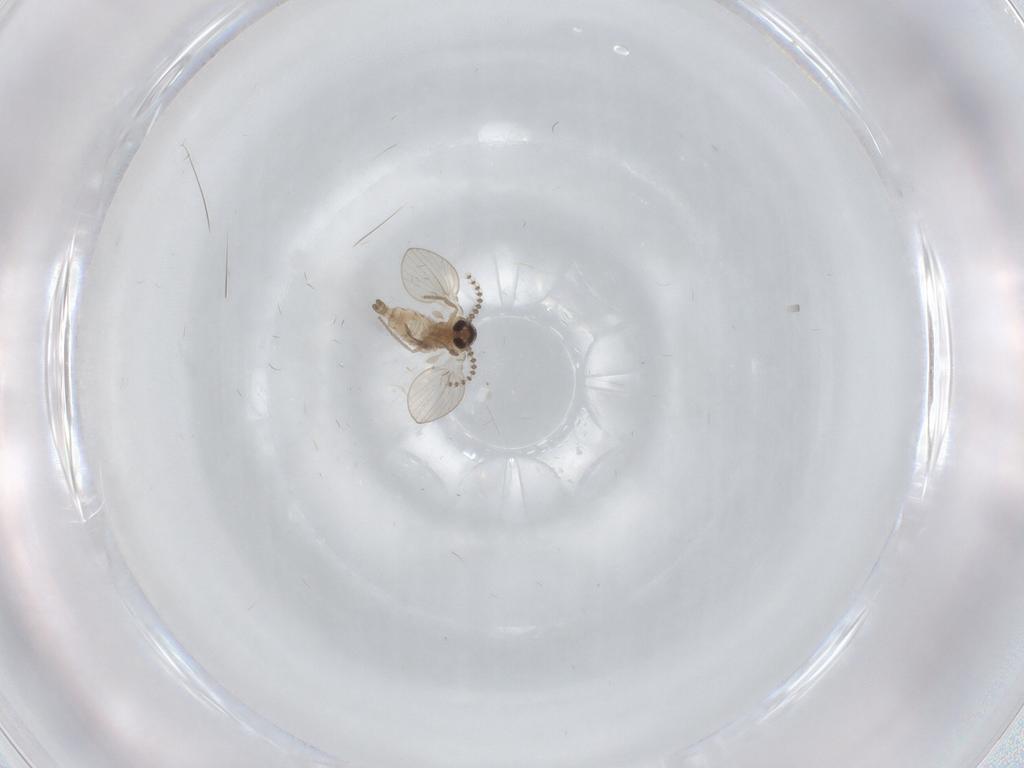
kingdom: Animalia
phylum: Arthropoda
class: Insecta
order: Diptera
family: Psychodidae
